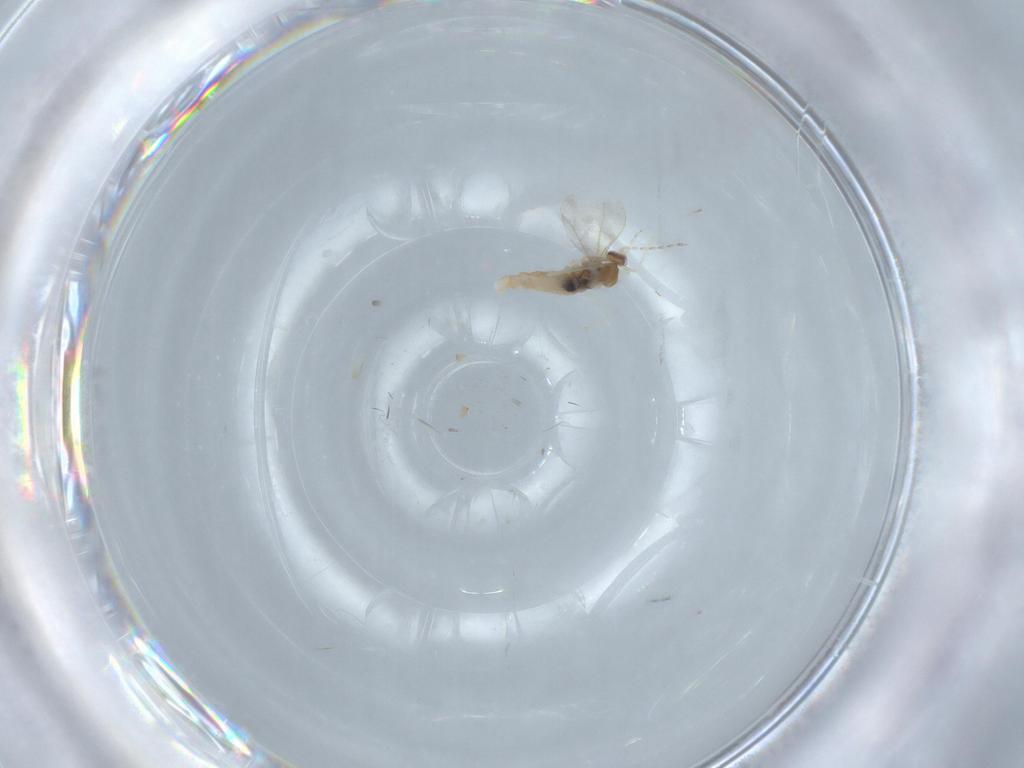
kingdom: Animalia
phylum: Arthropoda
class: Insecta
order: Diptera
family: Cecidomyiidae
